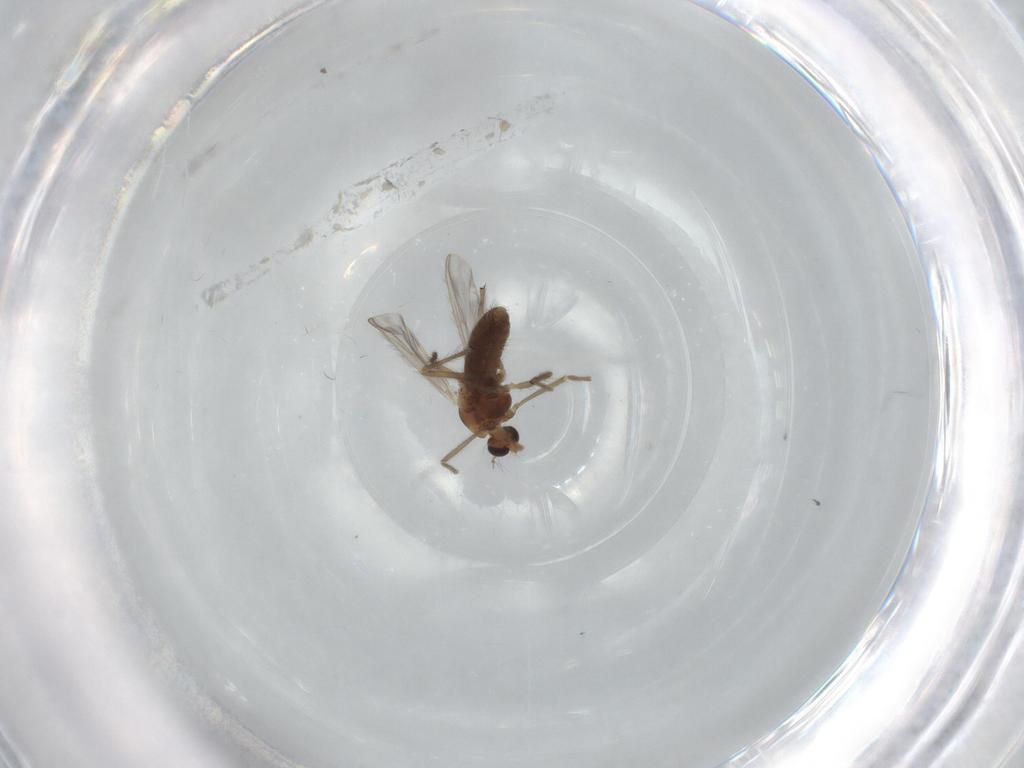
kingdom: Animalia
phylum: Arthropoda
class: Insecta
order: Diptera
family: Chironomidae
